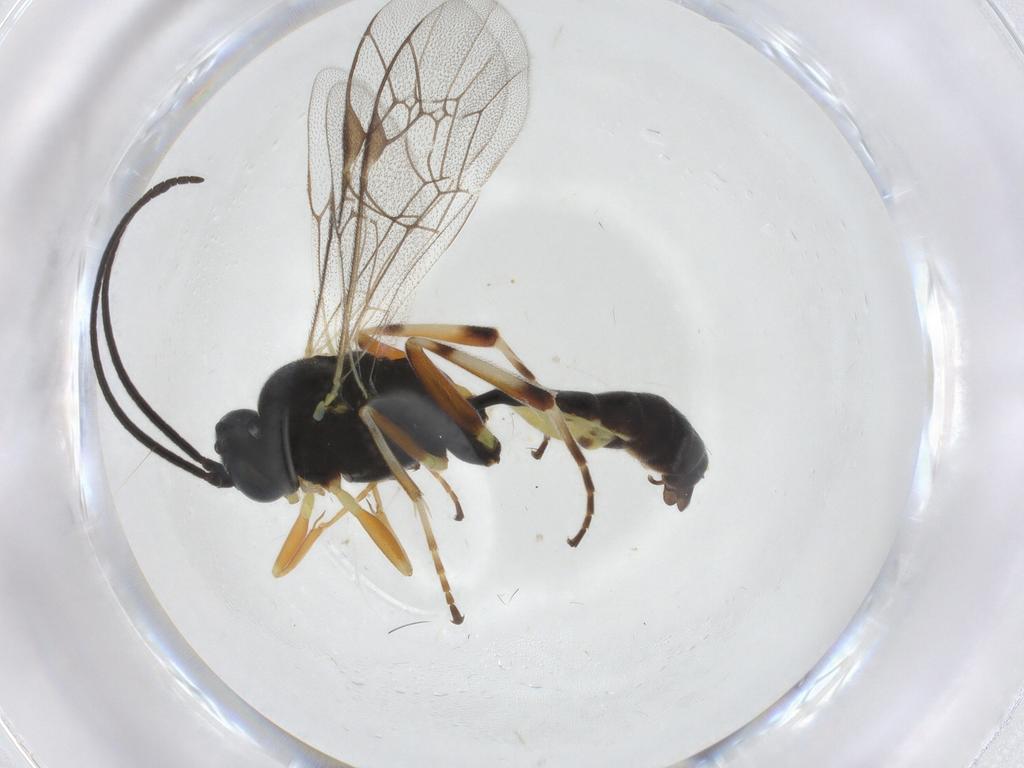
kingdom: Animalia
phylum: Arthropoda
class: Insecta
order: Hymenoptera
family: Ichneumonidae
